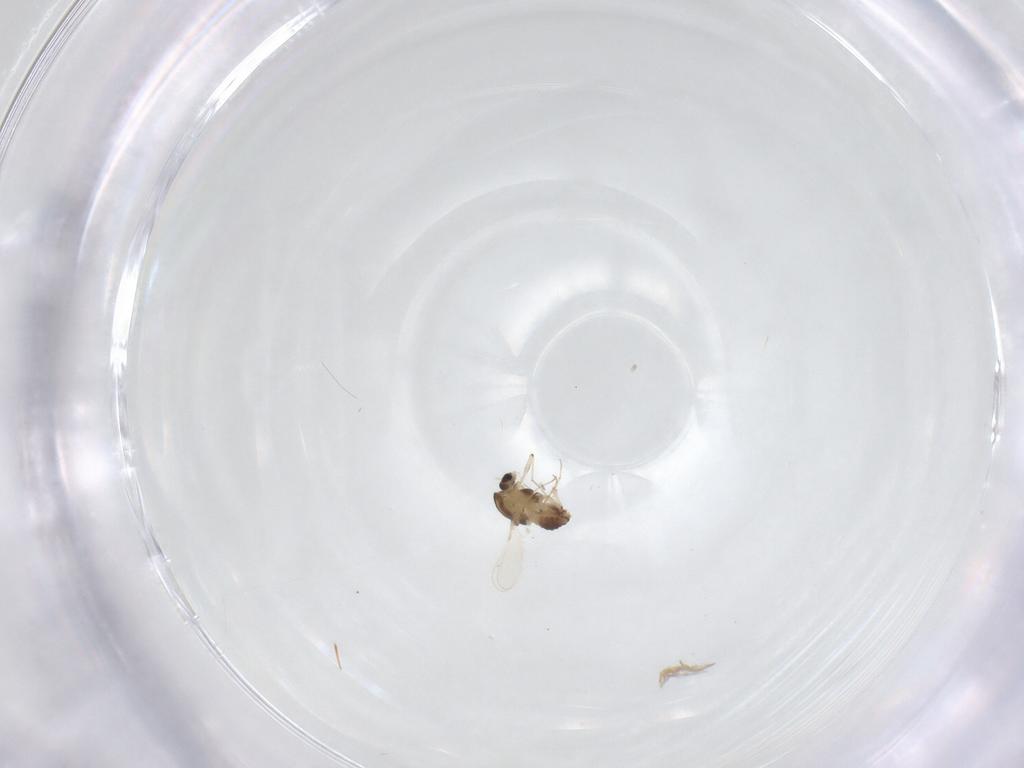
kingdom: Animalia
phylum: Arthropoda
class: Insecta
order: Diptera
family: Chironomidae
